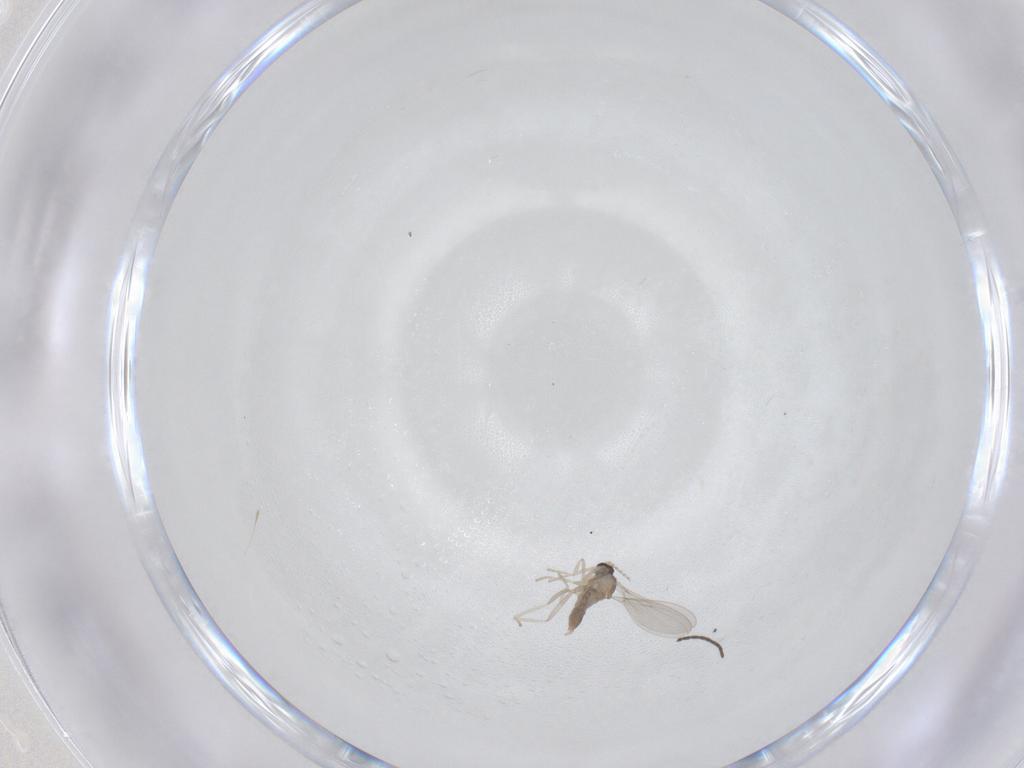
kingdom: Animalia
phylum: Arthropoda
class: Insecta
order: Diptera
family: Cecidomyiidae
